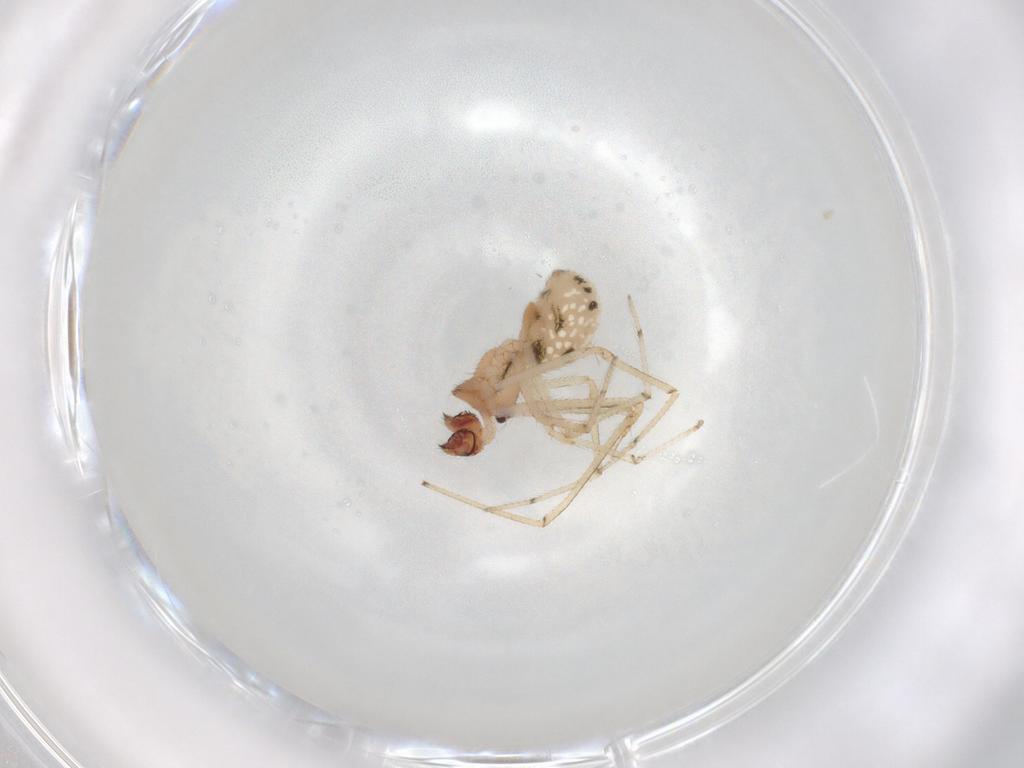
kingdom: Animalia
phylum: Arthropoda
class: Arachnida
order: Araneae
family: Theridiidae
